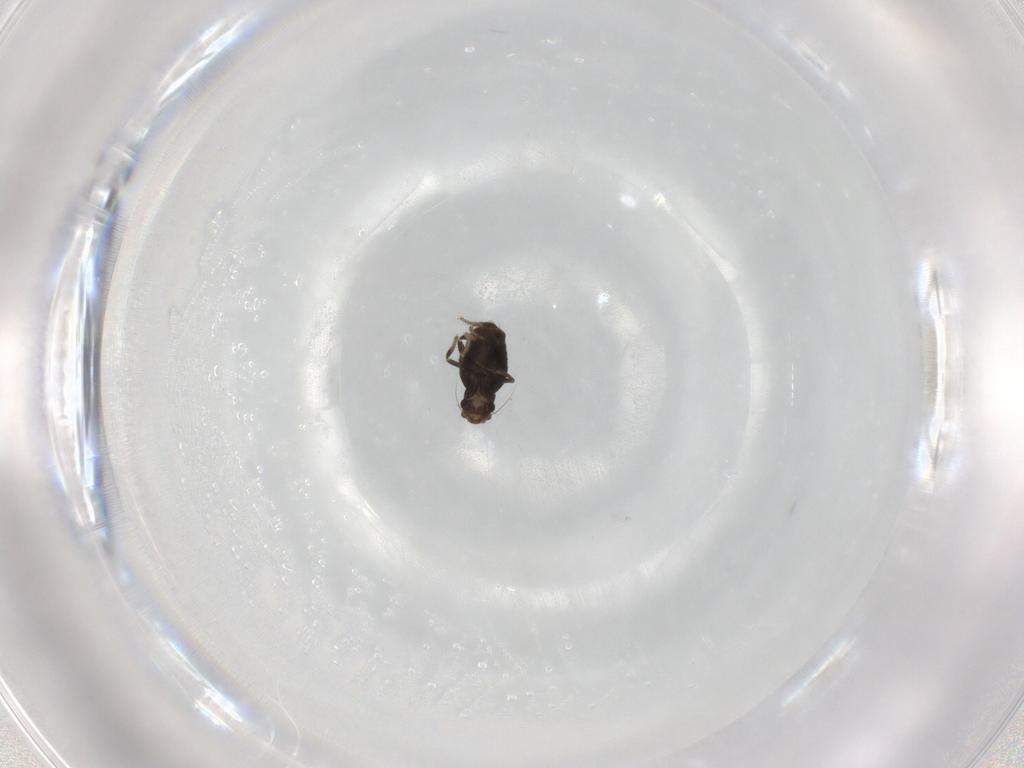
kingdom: Animalia
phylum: Arthropoda
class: Insecta
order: Diptera
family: Phoridae
